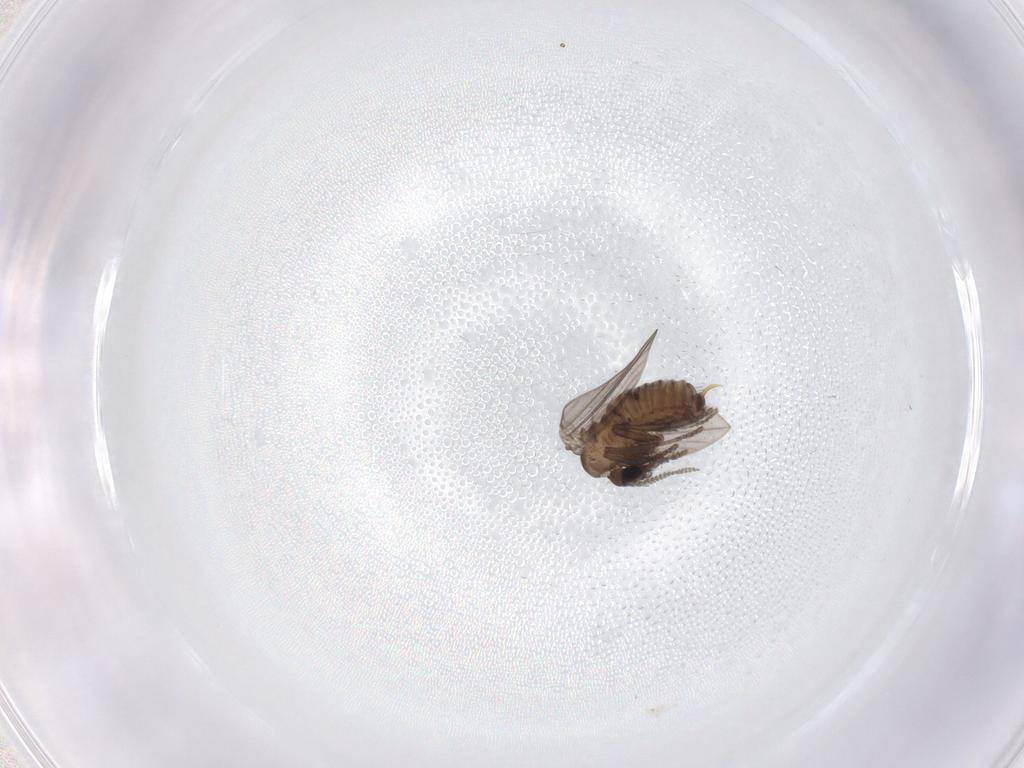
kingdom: Animalia
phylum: Arthropoda
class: Insecta
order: Diptera
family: Psychodidae
